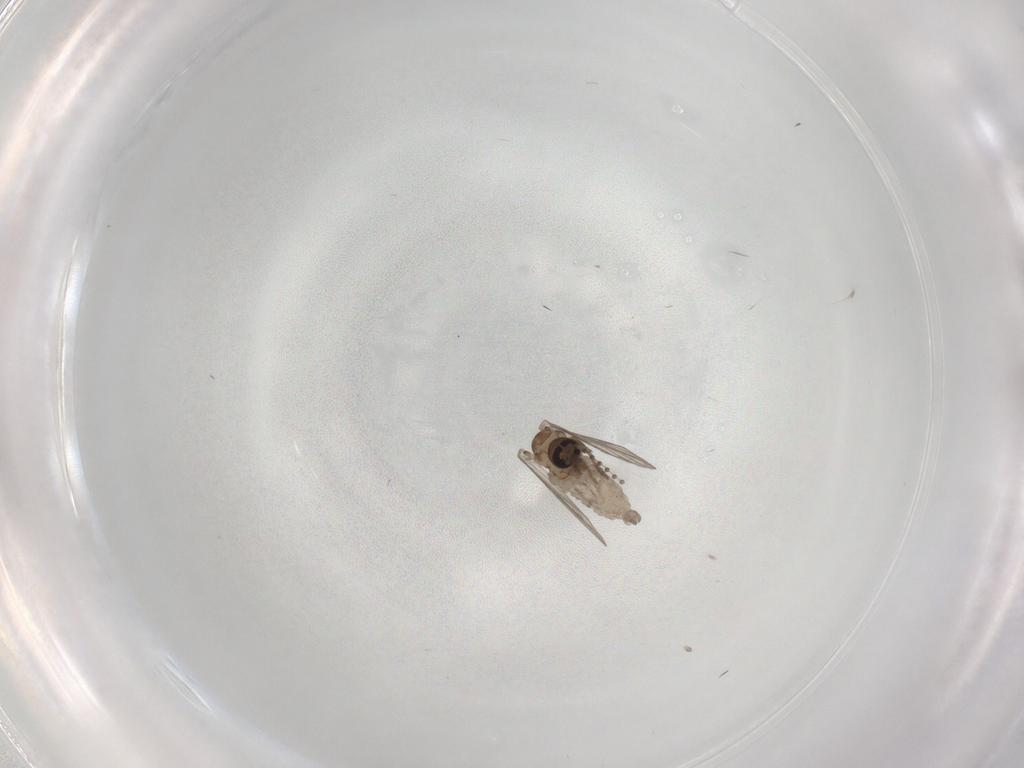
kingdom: Animalia
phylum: Arthropoda
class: Insecta
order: Diptera
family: Psychodidae
